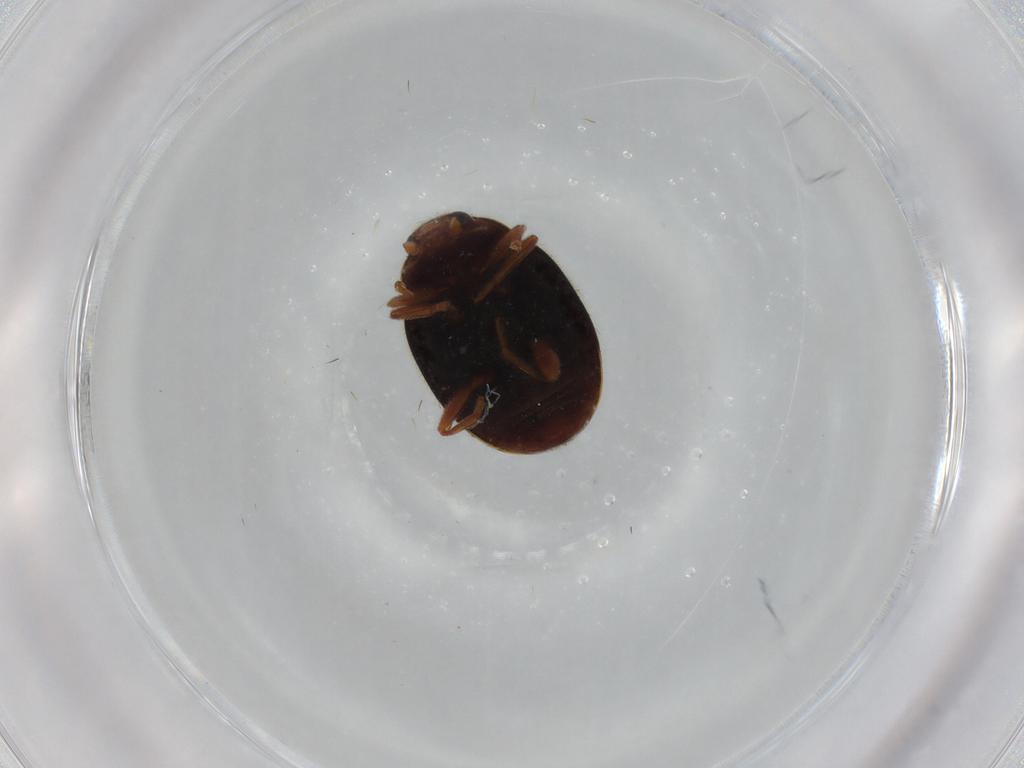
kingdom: Animalia
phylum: Arthropoda
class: Insecta
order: Coleoptera
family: Coccinellidae
